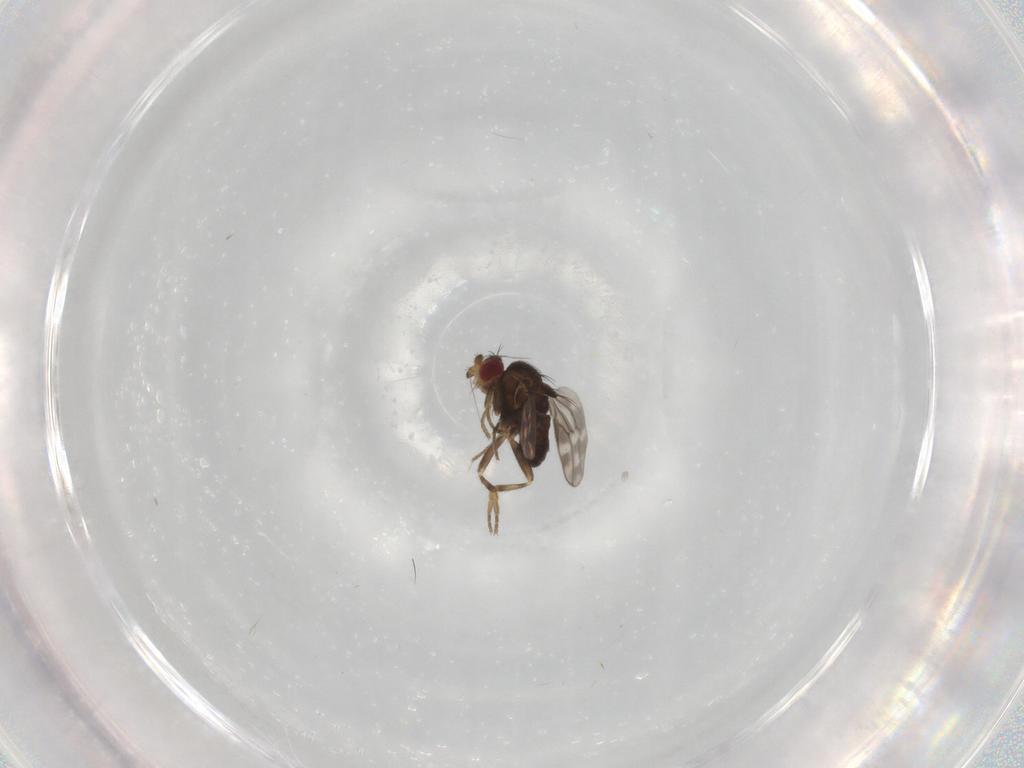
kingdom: Animalia
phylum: Arthropoda
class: Insecta
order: Diptera
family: Sphaeroceridae
